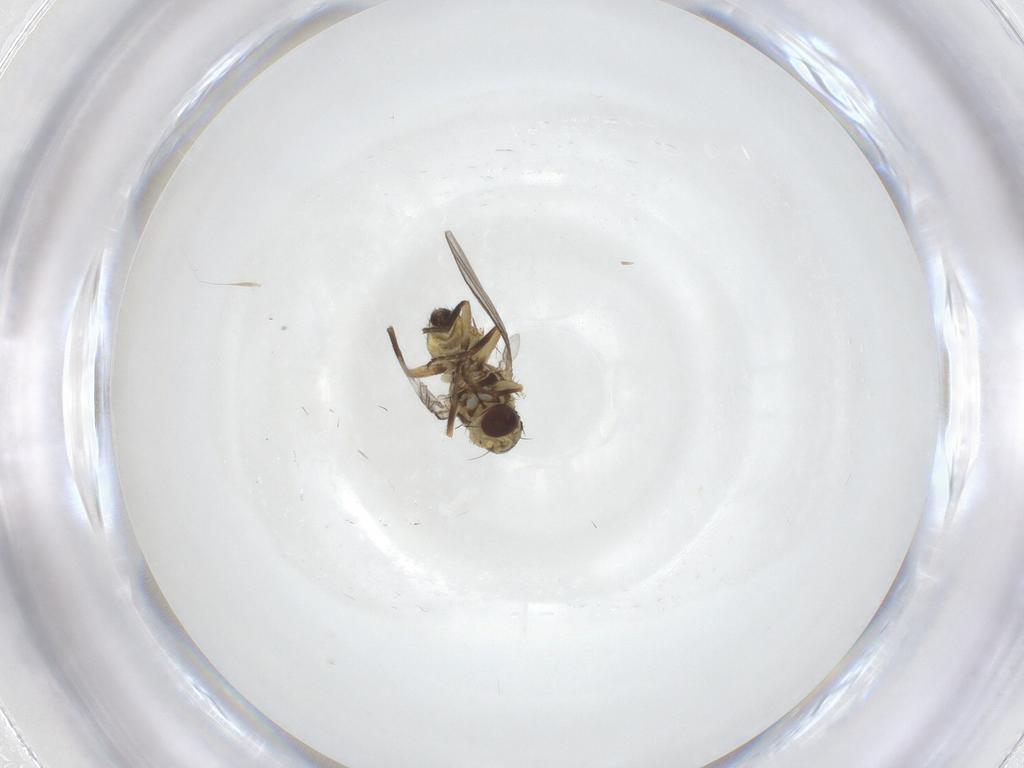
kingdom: Animalia
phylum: Arthropoda
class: Insecta
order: Diptera
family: Agromyzidae
